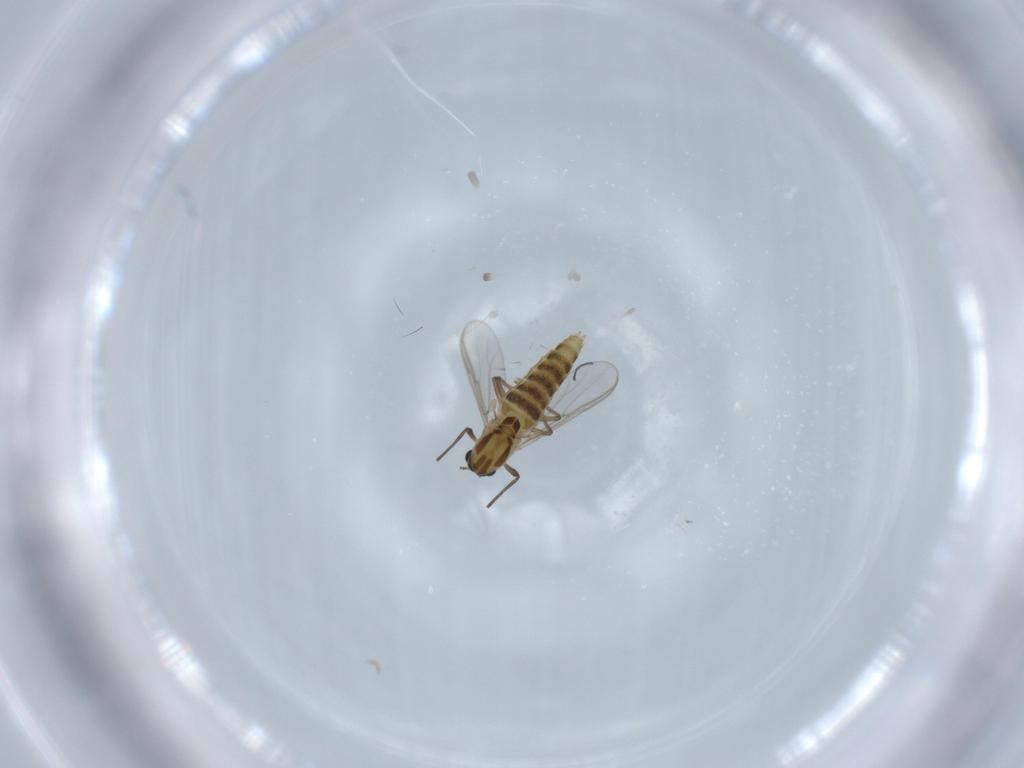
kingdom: Animalia
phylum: Arthropoda
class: Insecta
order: Diptera
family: Chironomidae
